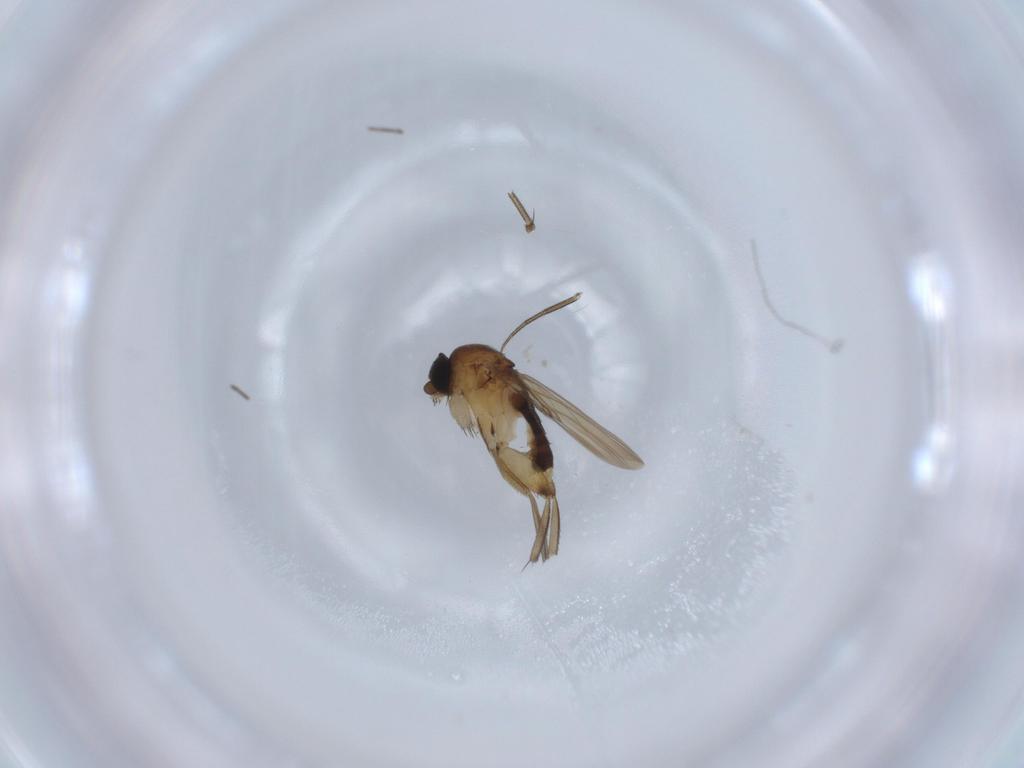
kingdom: Animalia
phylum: Arthropoda
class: Insecta
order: Diptera
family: Phoridae
